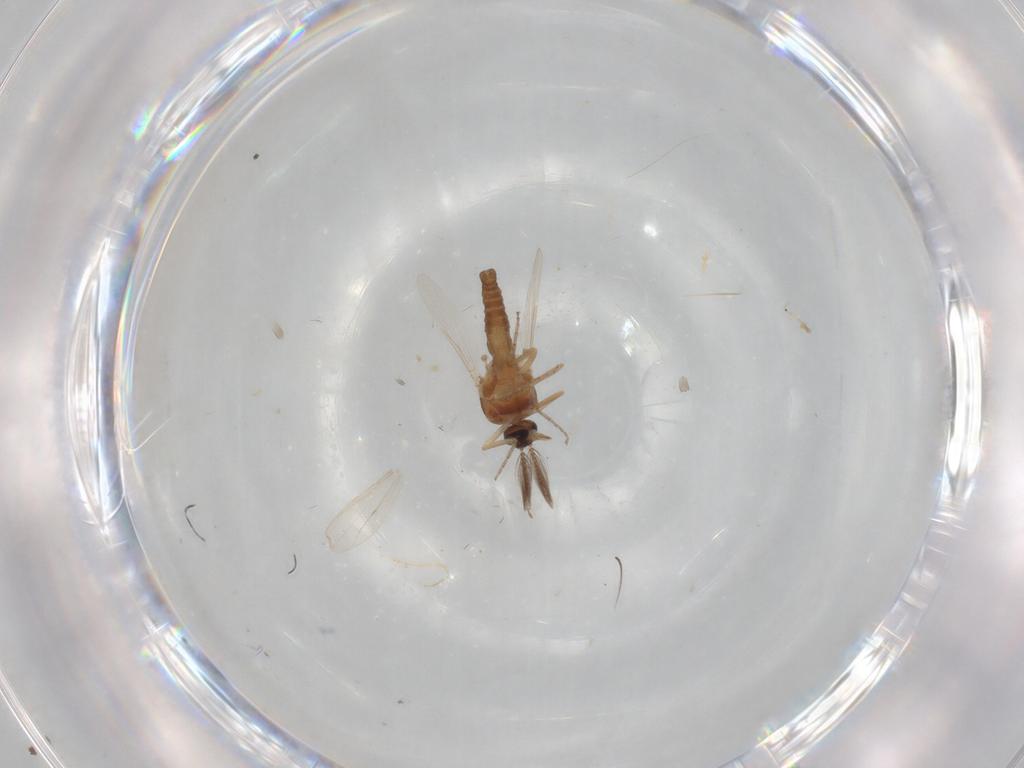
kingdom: Animalia
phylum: Arthropoda
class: Insecta
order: Diptera
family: Ceratopogonidae
